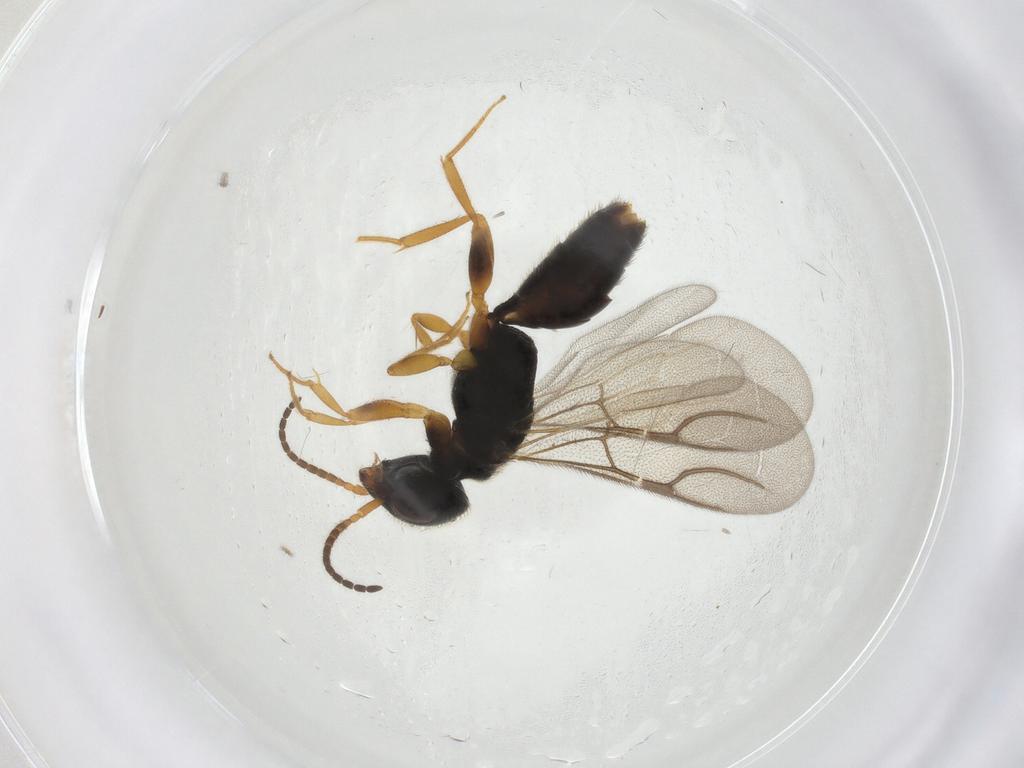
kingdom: Animalia
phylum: Arthropoda
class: Insecta
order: Hymenoptera
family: Bethylidae
